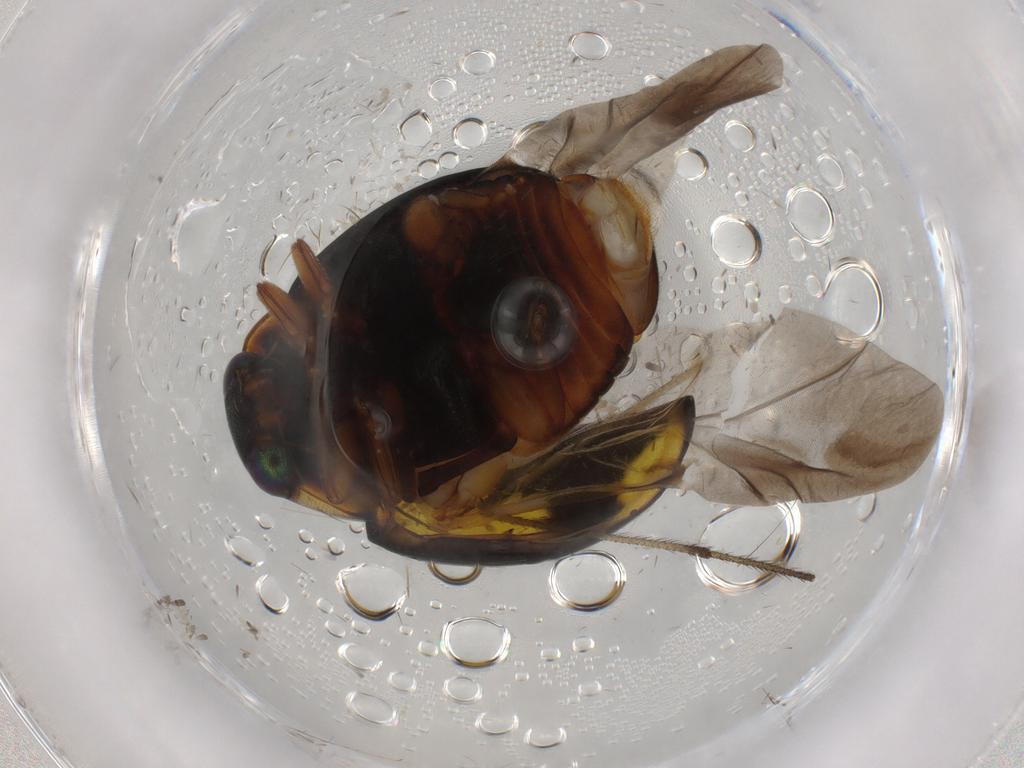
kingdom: Animalia
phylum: Arthropoda
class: Insecta
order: Coleoptera
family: Coccinellidae
